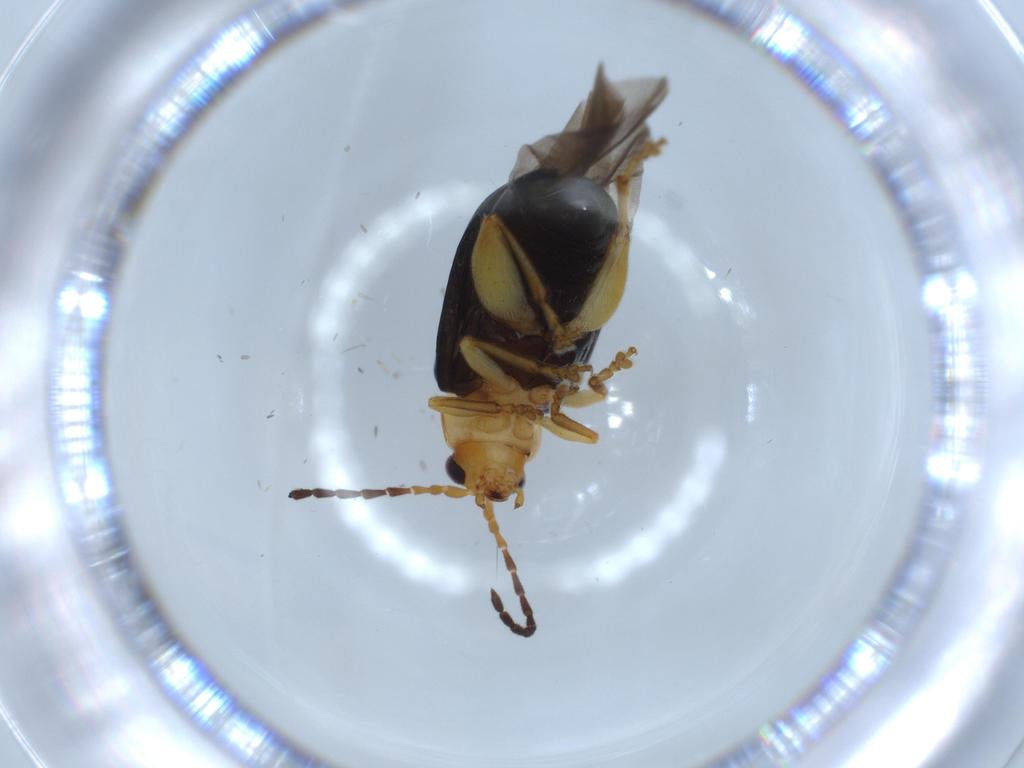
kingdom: Animalia
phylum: Arthropoda
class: Insecta
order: Coleoptera
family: Chrysomelidae
